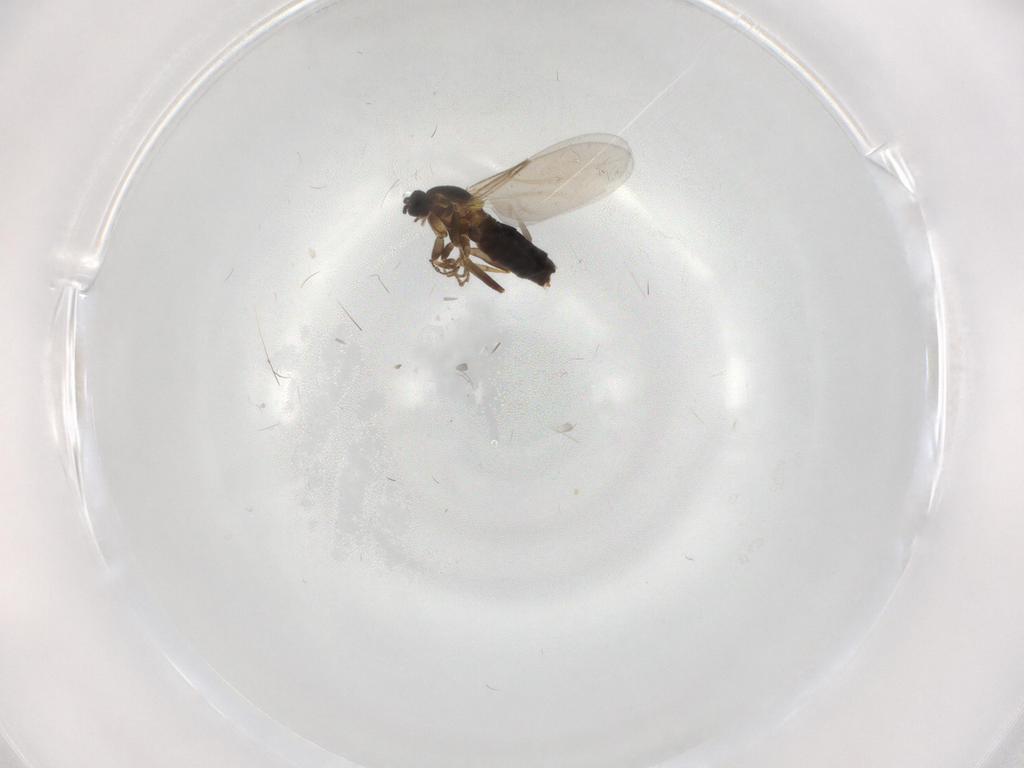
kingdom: Animalia
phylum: Arthropoda
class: Insecta
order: Diptera
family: Scatopsidae
